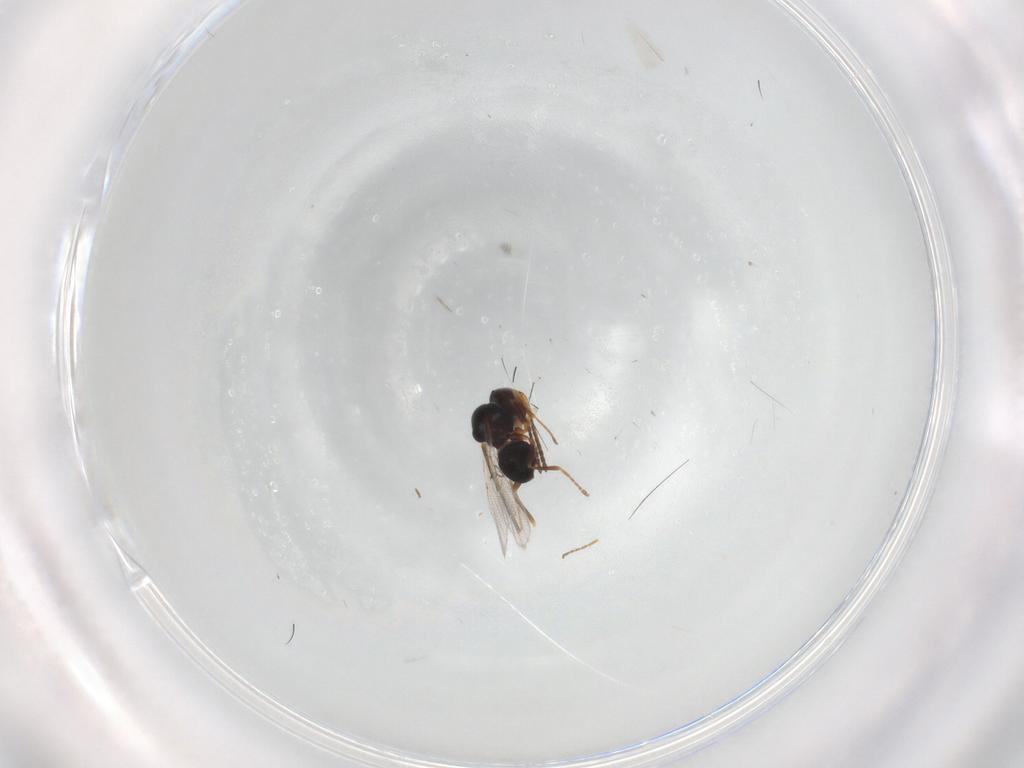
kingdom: Animalia
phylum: Arthropoda
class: Insecta
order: Hymenoptera
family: Figitidae
